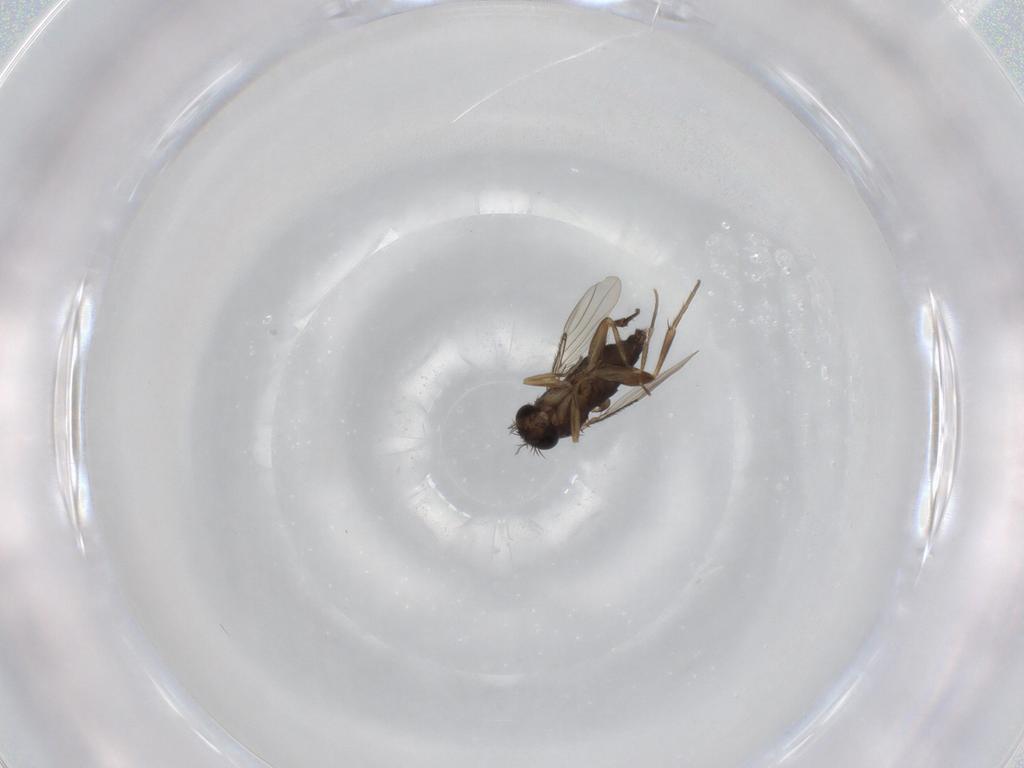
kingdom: Animalia
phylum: Arthropoda
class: Insecta
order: Diptera
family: Phoridae
